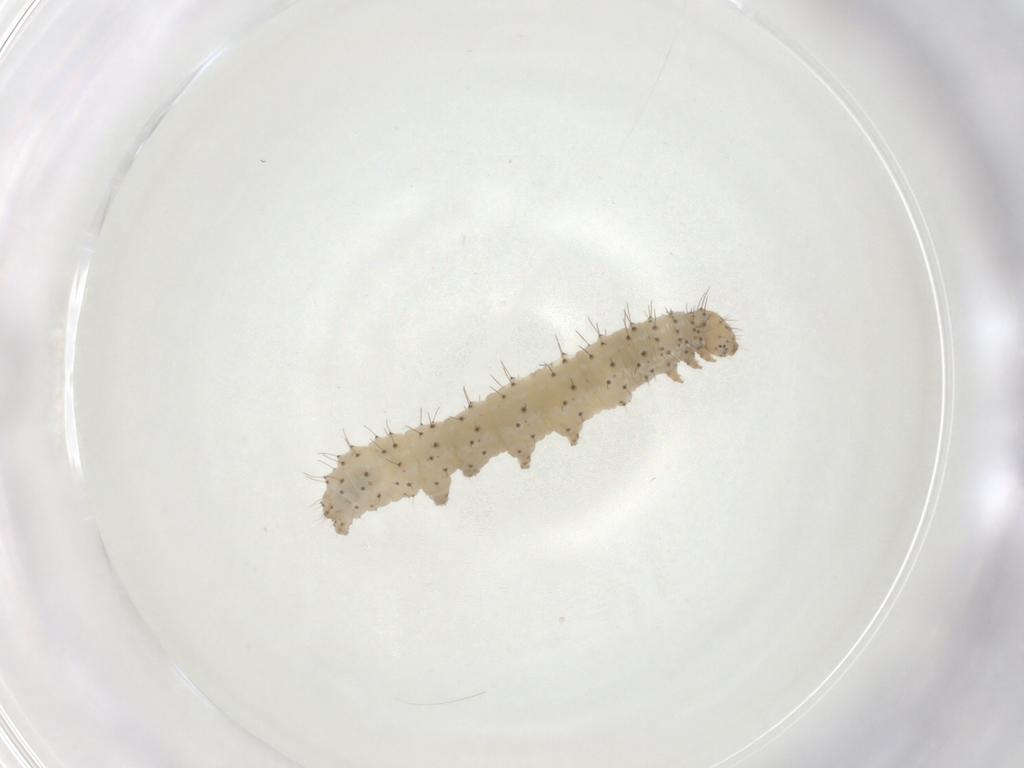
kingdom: Animalia
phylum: Arthropoda
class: Insecta
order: Lepidoptera
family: Noctuidae
